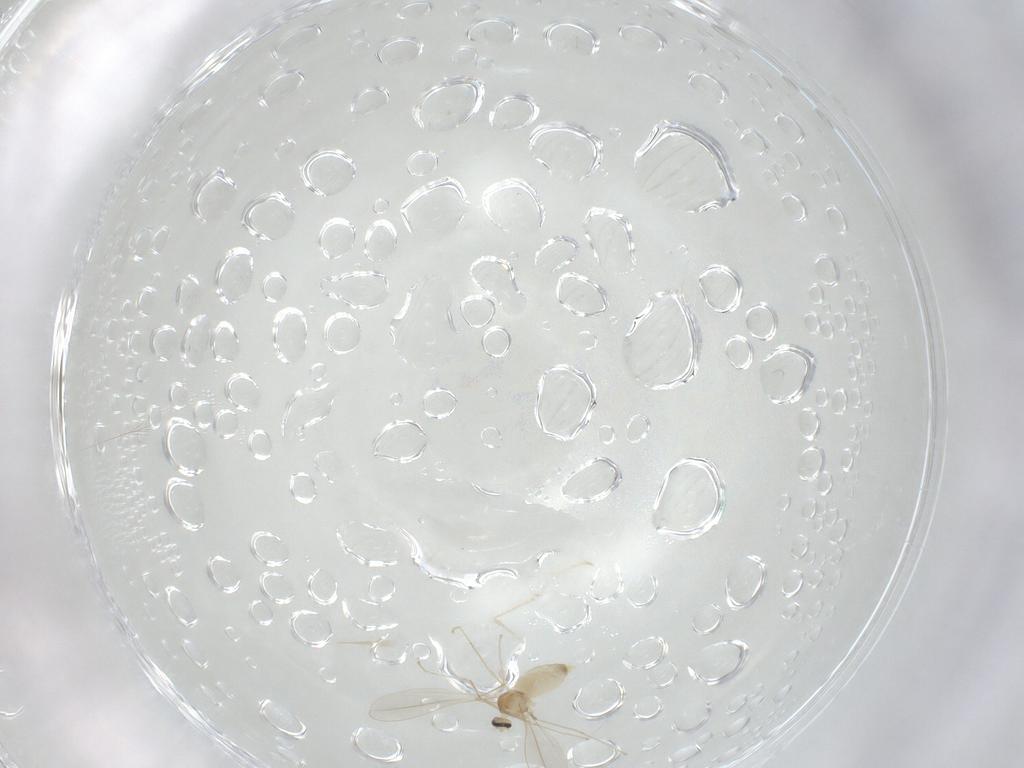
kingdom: Animalia
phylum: Arthropoda
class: Insecta
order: Diptera
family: Cecidomyiidae
